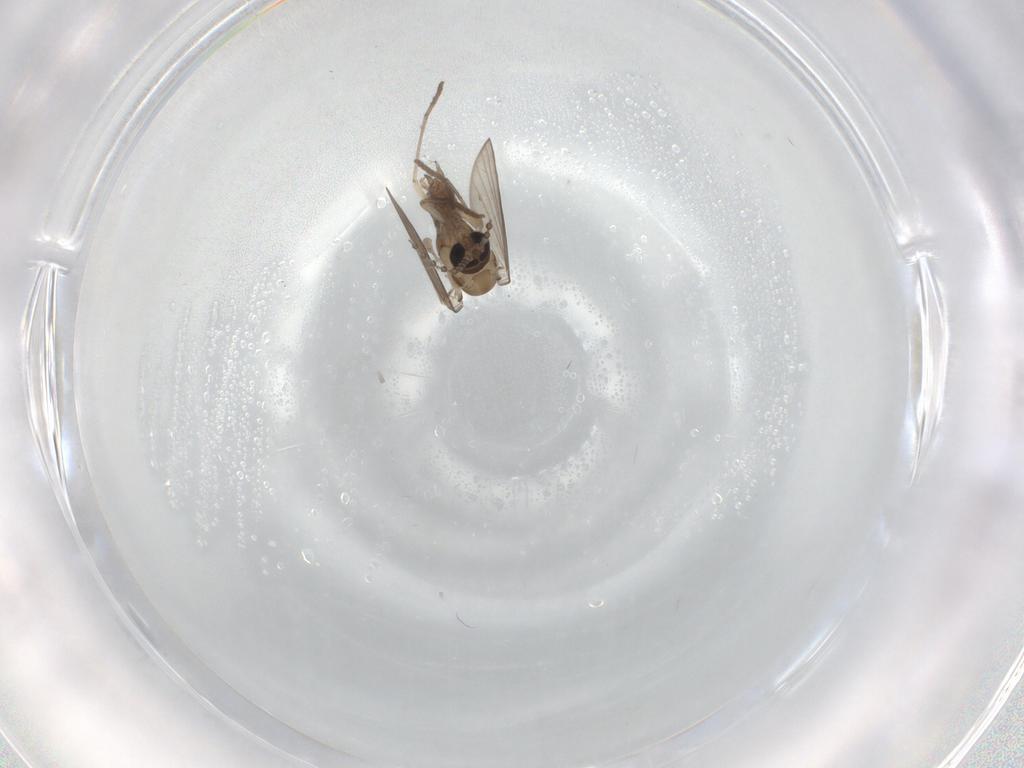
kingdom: Animalia
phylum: Arthropoda
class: Insecta
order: Diptera
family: Psychodidae
